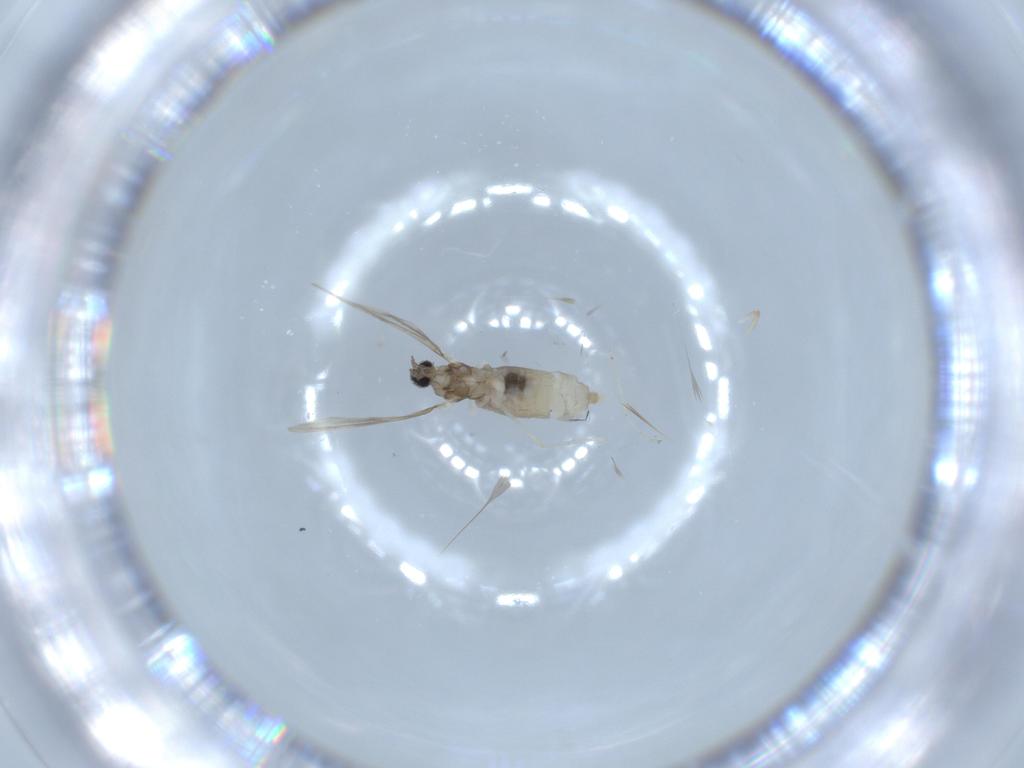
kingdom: Animalia
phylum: Arthropoda
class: Insecta
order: Diptera
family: Cecidomyiidae
